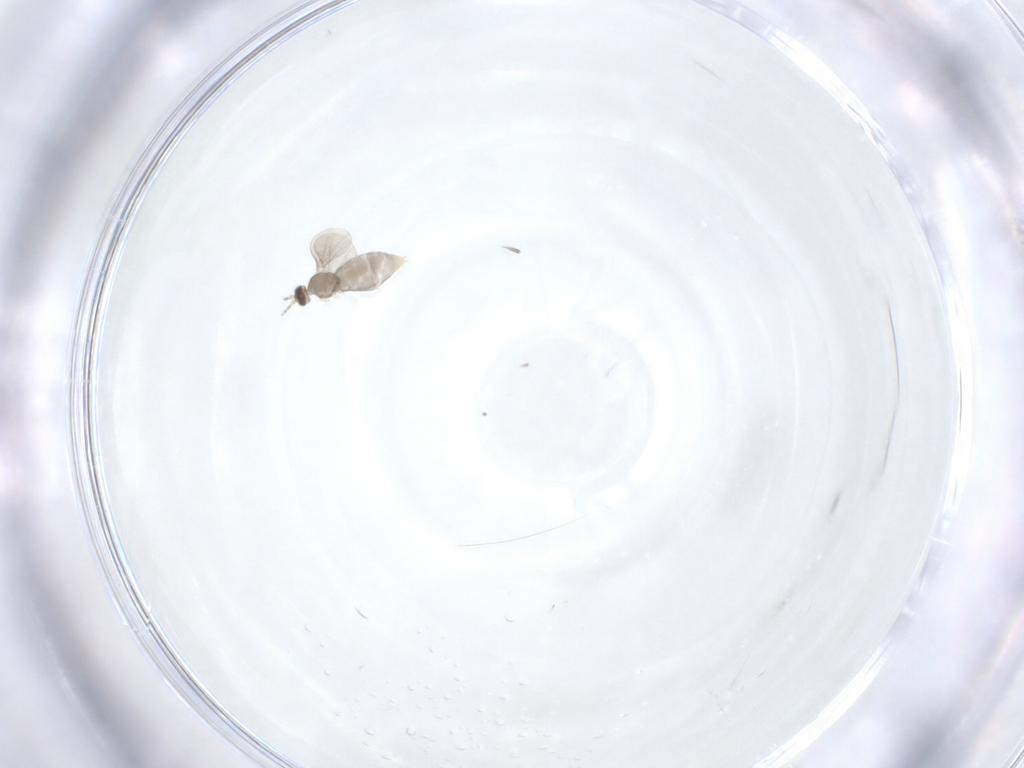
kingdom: Animalia
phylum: Arthropoda
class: Insecta
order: Diptera
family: Cecidomyiidae
